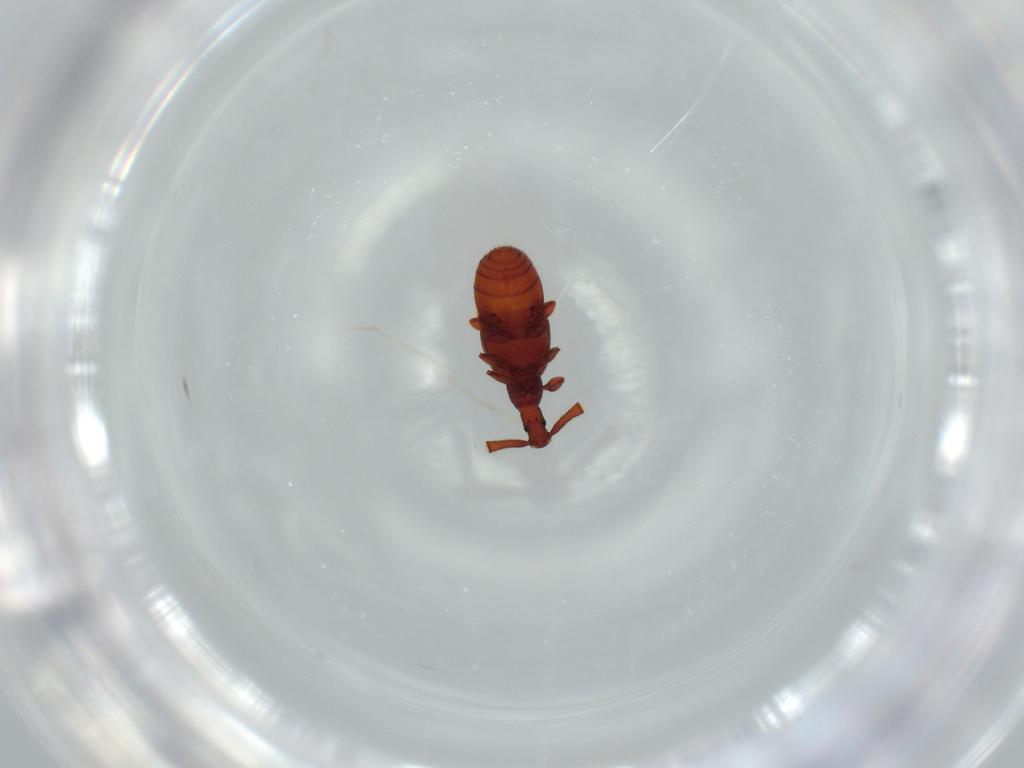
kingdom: Animalia
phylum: Arthropoda
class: Insecta
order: Coleoptera
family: Staphylinidae
